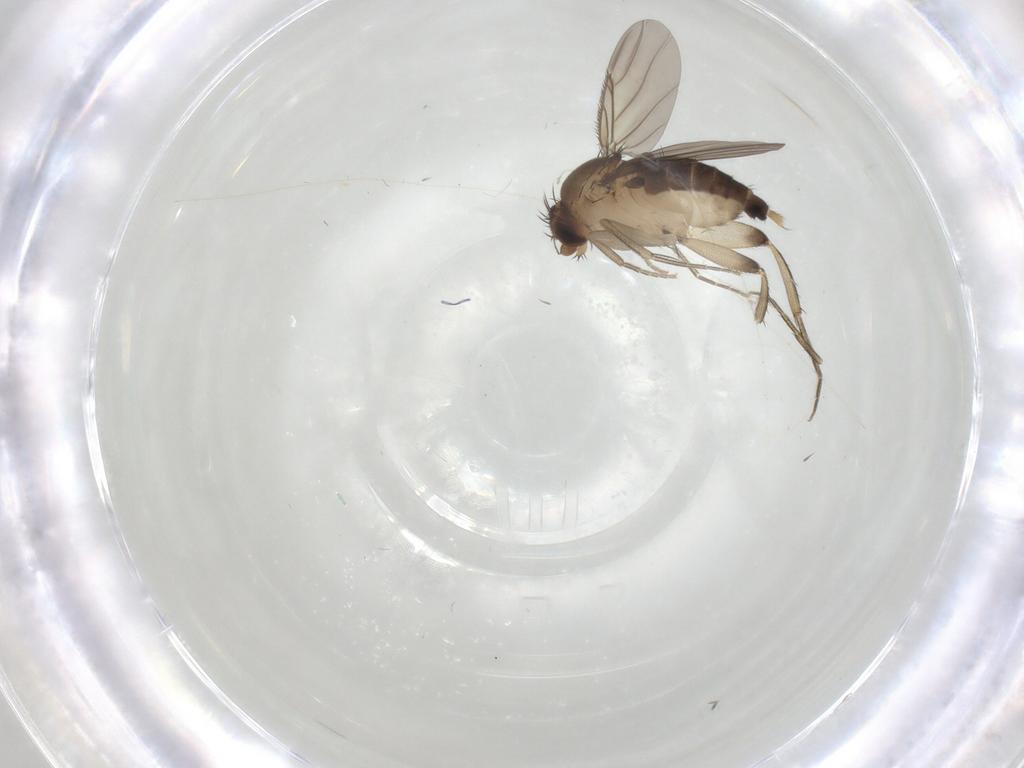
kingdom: Animalia
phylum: Arthropoda
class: Insecta
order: Diptera
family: Phoridae
